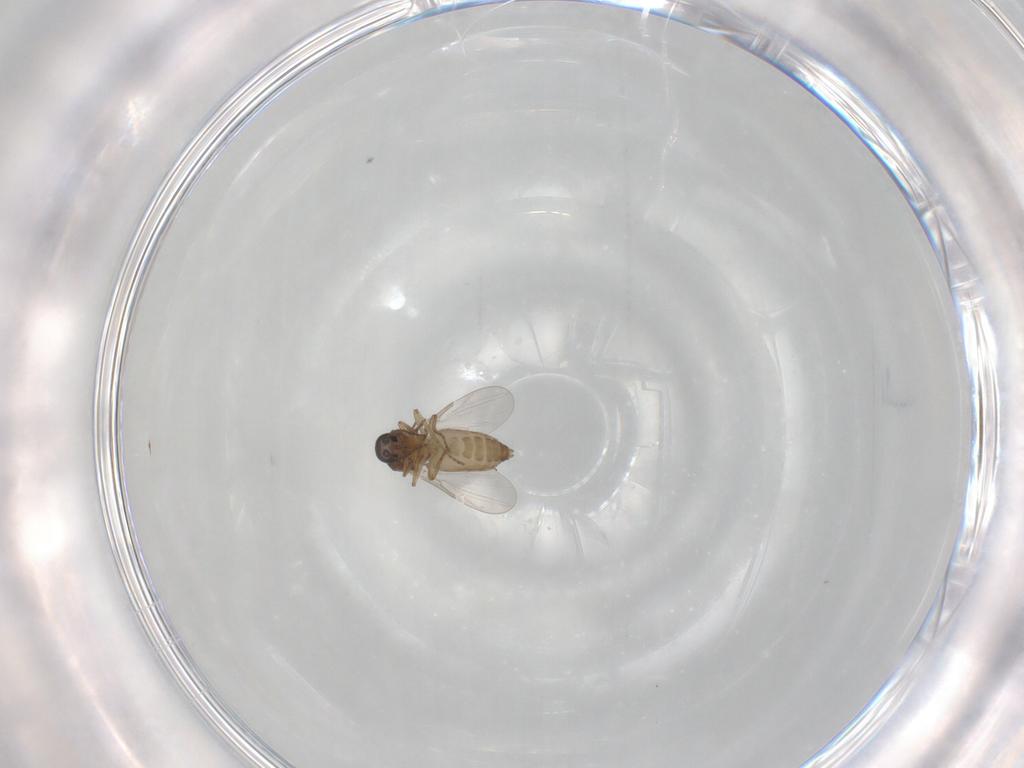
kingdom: Animalia
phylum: Arthropoda
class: Insecta
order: Diptera
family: Ceratopogonidae
